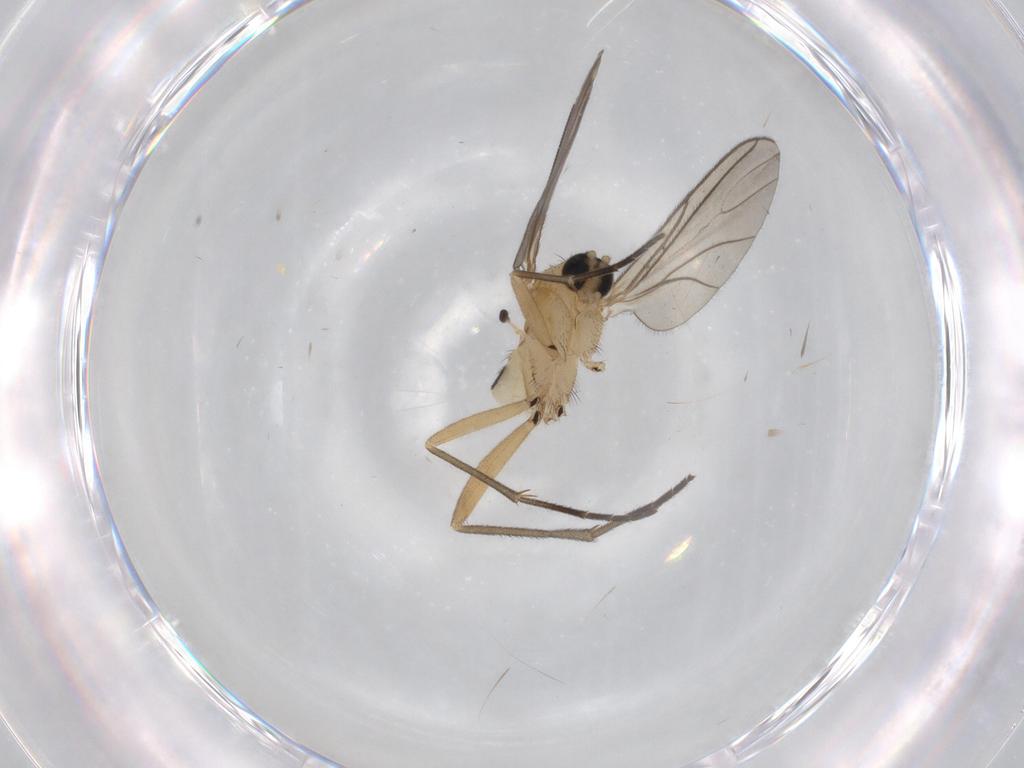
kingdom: Animalia
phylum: Arthropoda
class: Insecta
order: Diptera
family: Sciaridae
